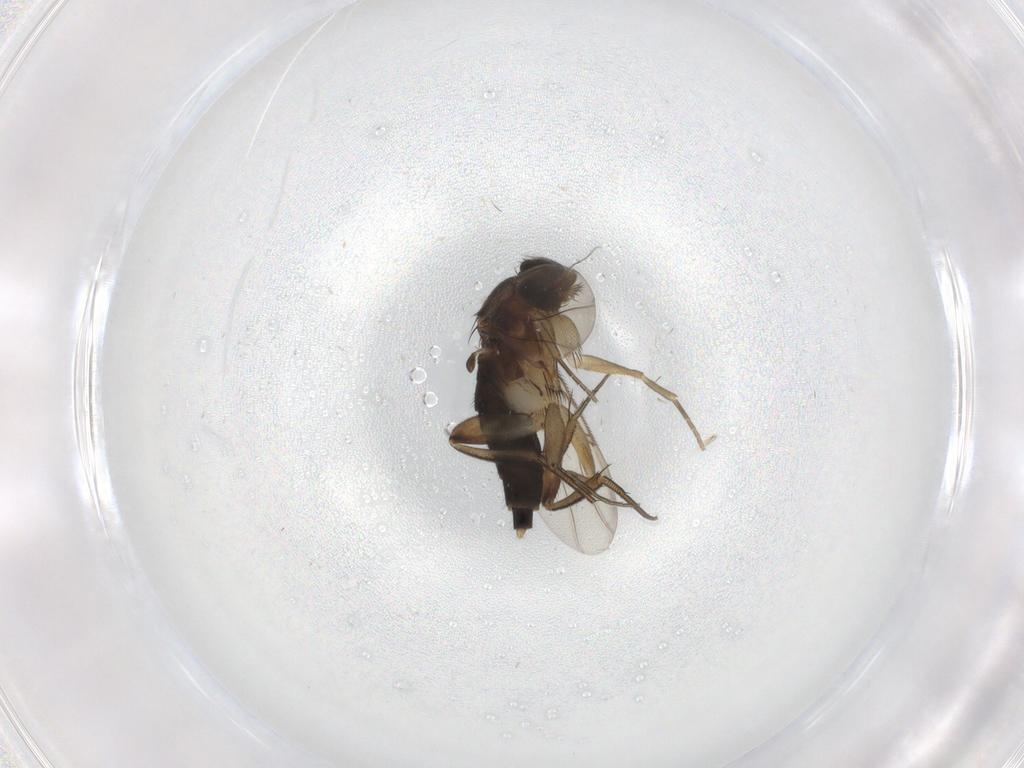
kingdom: Animalia
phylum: Arthropoda
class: Insecta
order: Diptera
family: Phoridae
